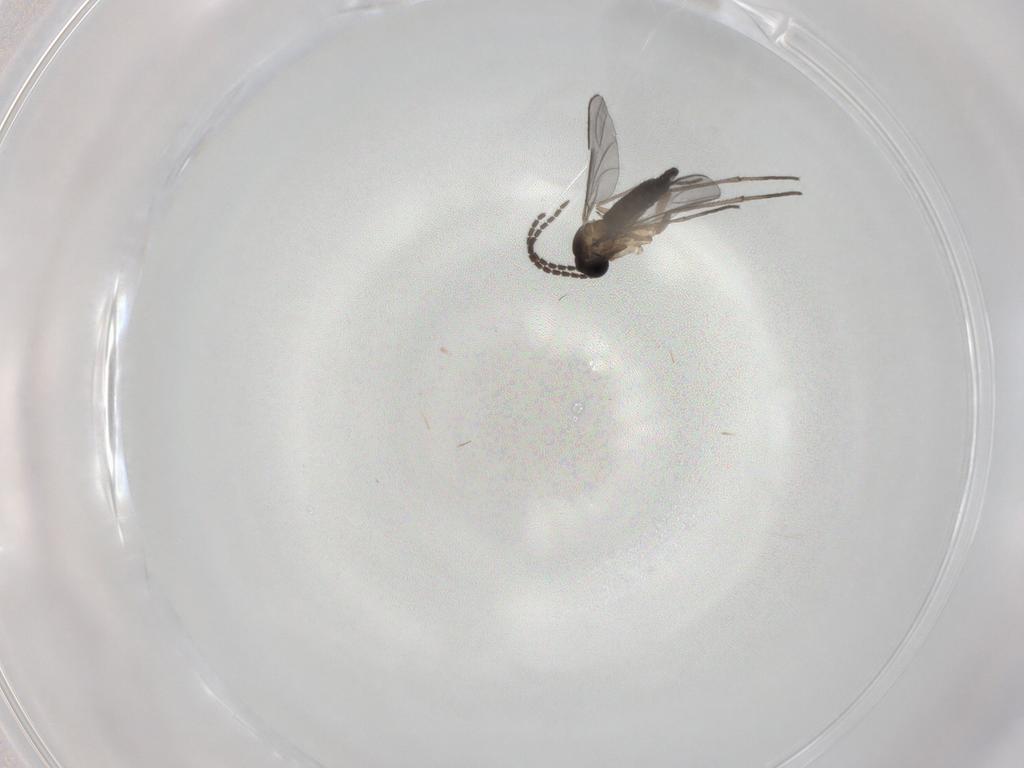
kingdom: Animalia
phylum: Arthropoda
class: Insecta
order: Diptera
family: Sciaridae
